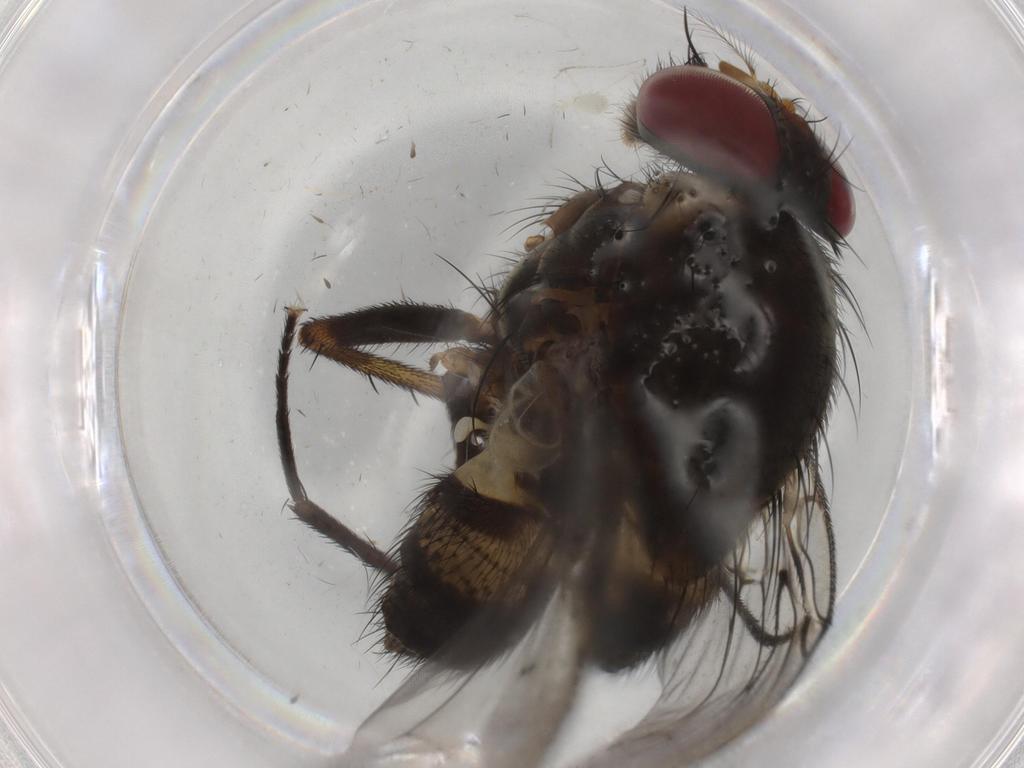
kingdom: Animalia
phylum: Arthropoda
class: Insecta
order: Diptera
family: Muscidae
